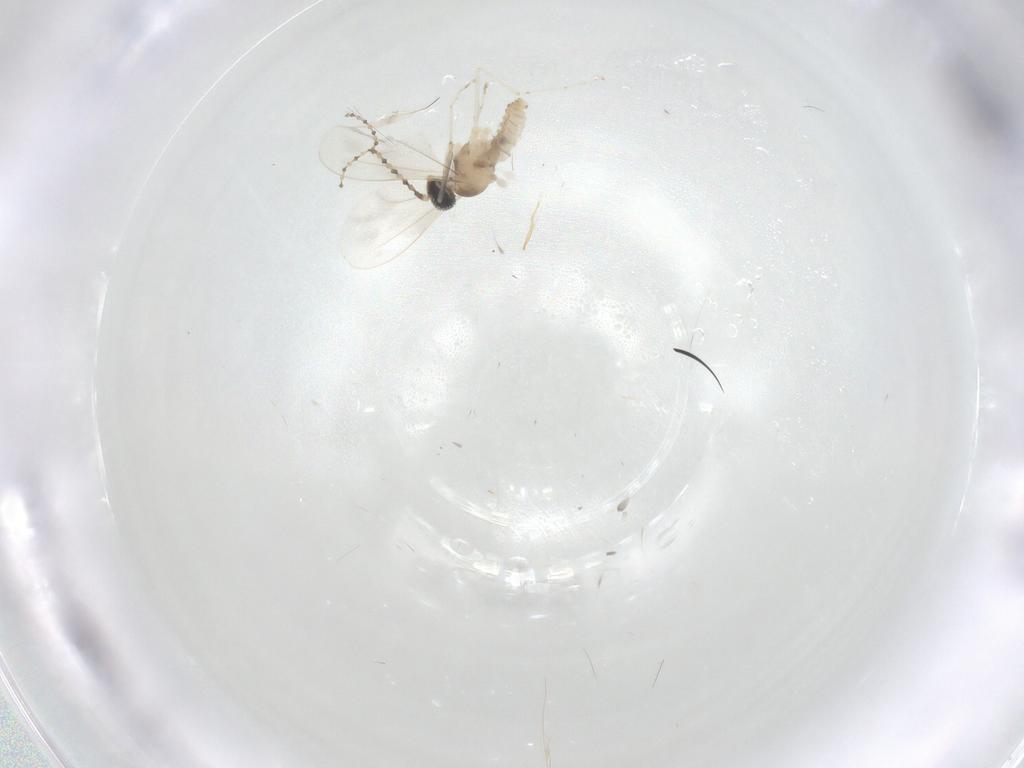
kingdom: Animalia
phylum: Arthropoda
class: Insecta
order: Diptera
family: Cecidomyiidae
